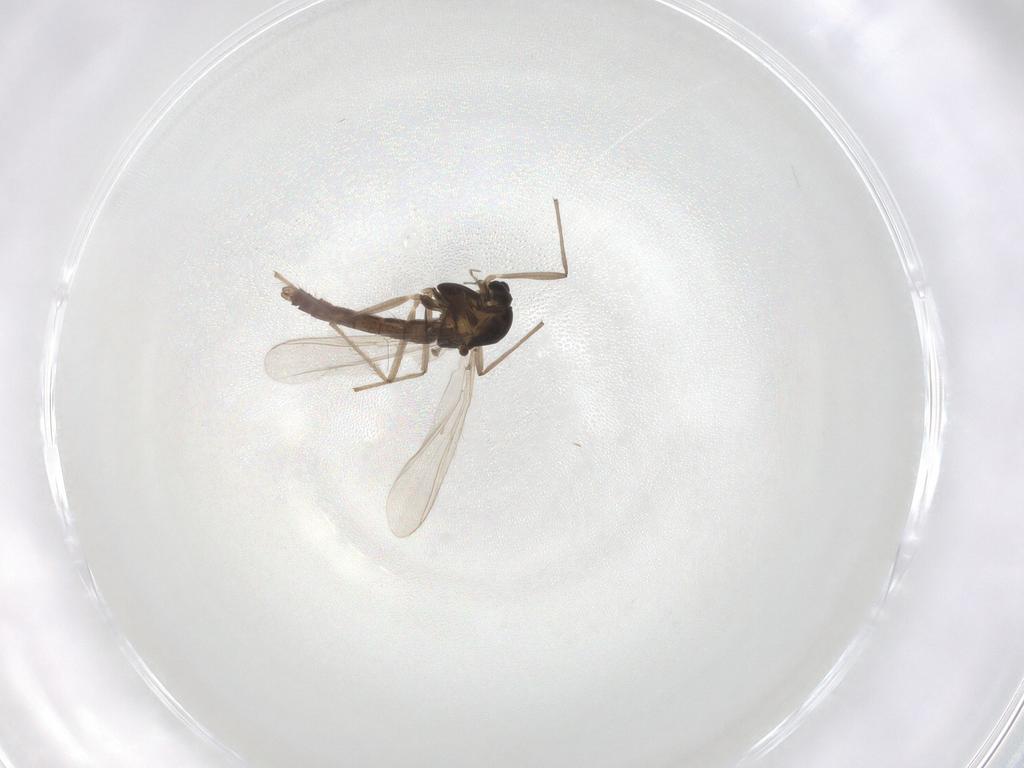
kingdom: Animalia
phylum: Arthropoda
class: Insecta
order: Diptera
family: Chironomidae
